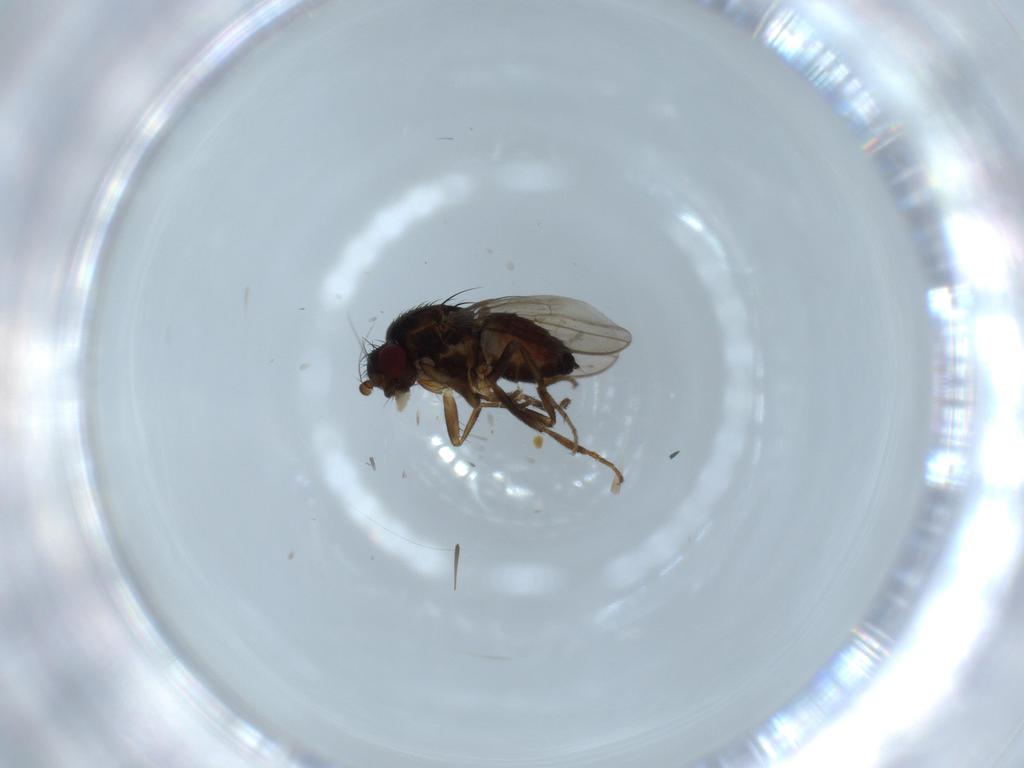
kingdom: Animalia
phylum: Arthropoda
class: Insecta
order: Diptera
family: Sphaeroceridae
